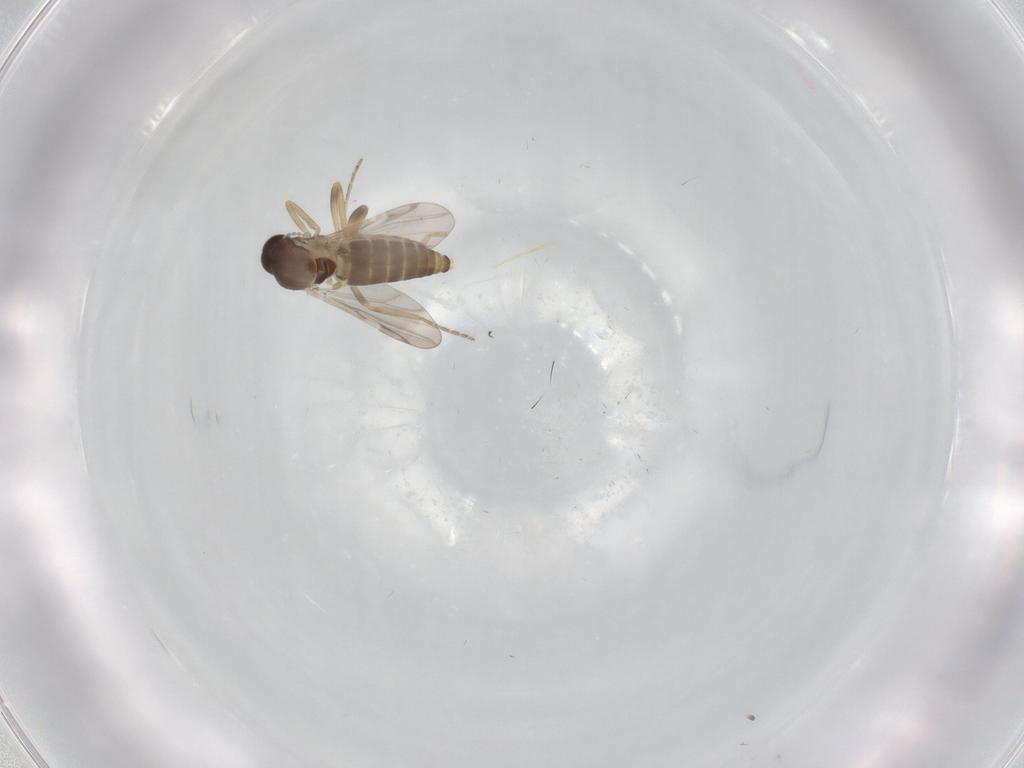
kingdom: Animalia
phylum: Arthropoda
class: Insecta
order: Diptera
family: Ceratopogonidae
